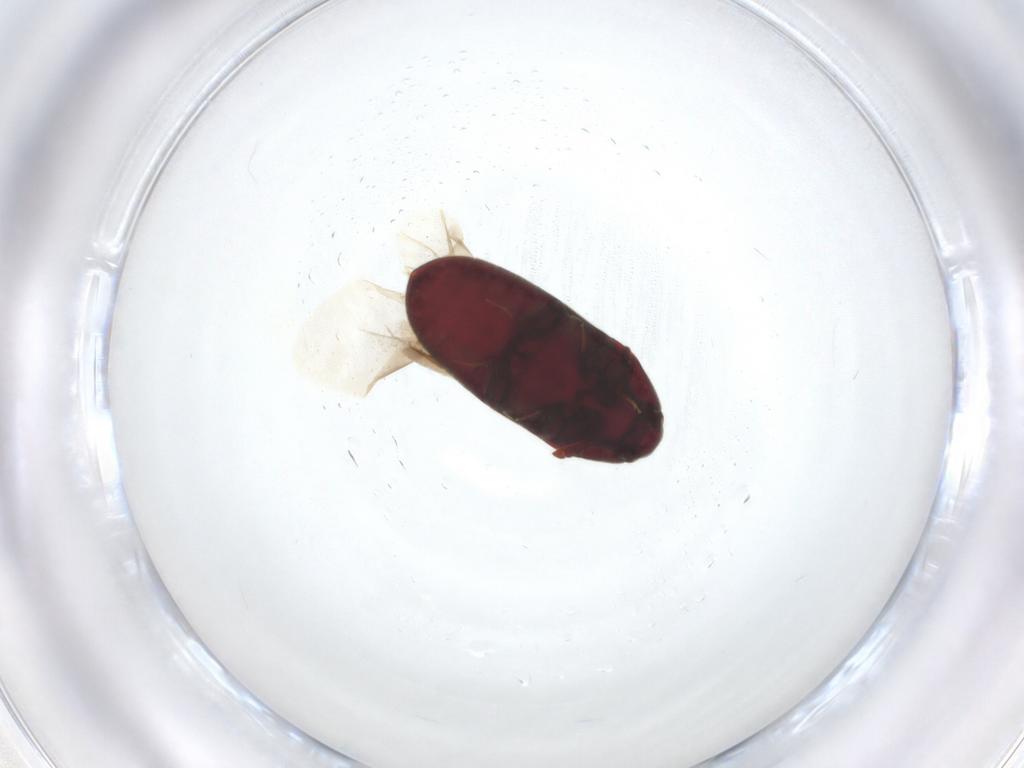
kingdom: Animalia
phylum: Arthropoda
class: Insecta
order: Coleoptera
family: Throscidae
